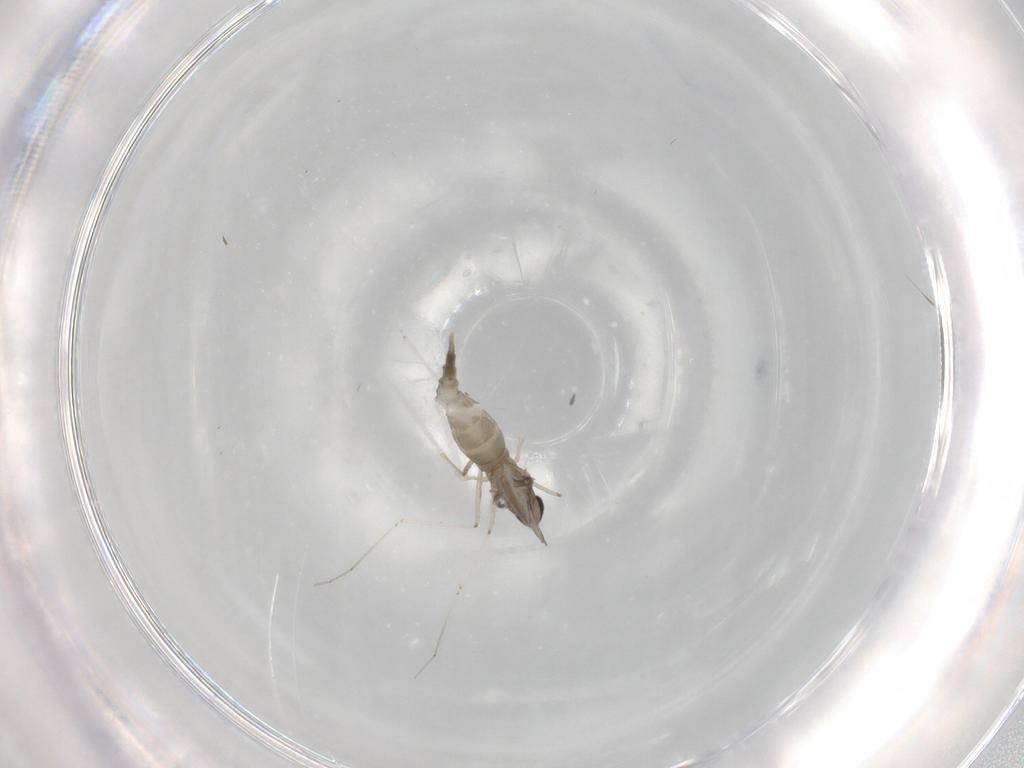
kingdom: Animalia
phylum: Arthropoda
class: Insecta
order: Diptera
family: Cecidomyiidae
